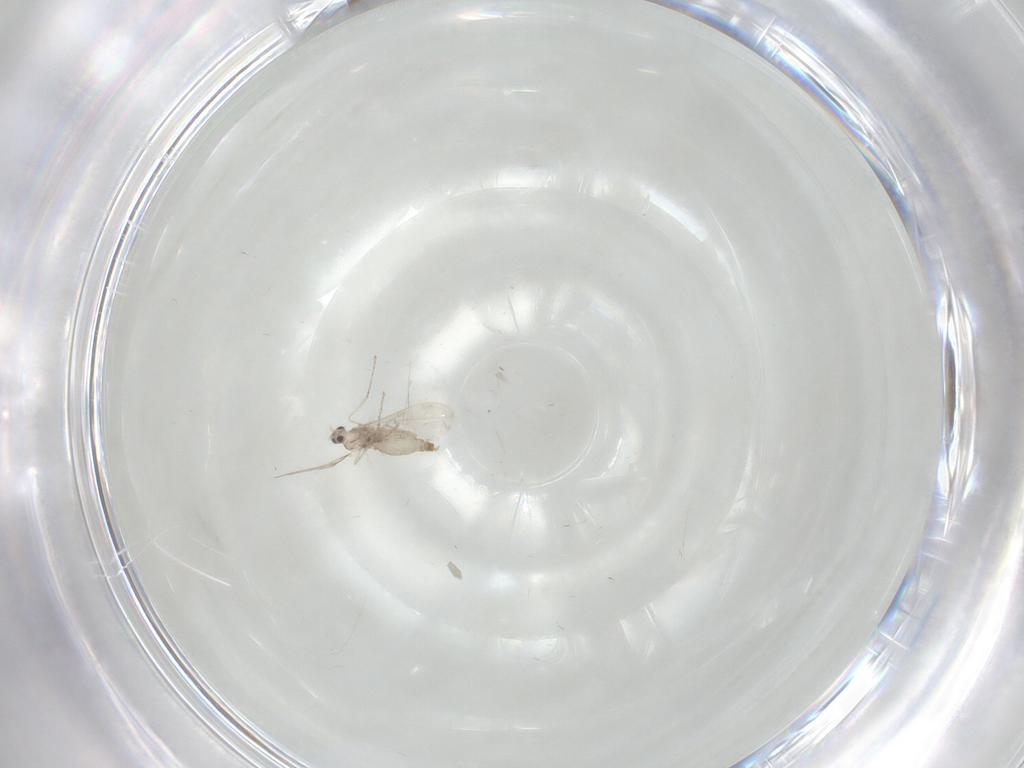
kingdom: Animalia
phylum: Arthropoda
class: Insecta
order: Diptera
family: Cecidomyiidae
